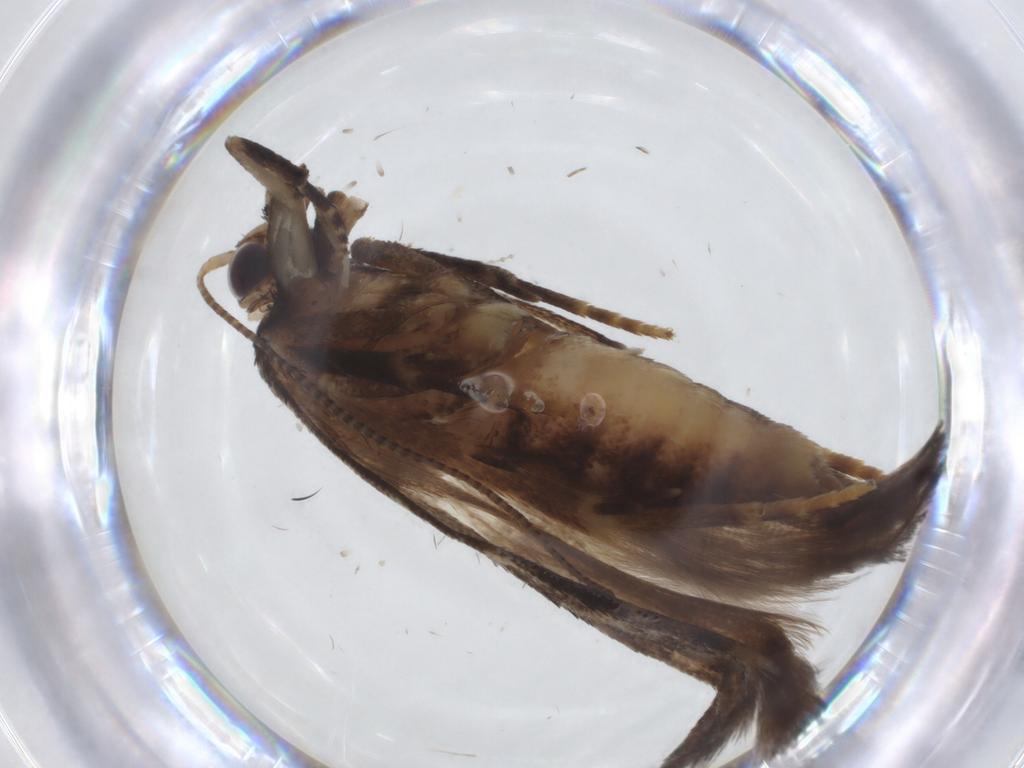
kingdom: Animalia
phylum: Arthropoda
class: Insecta
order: Lepidoptera
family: Gelechiidae
